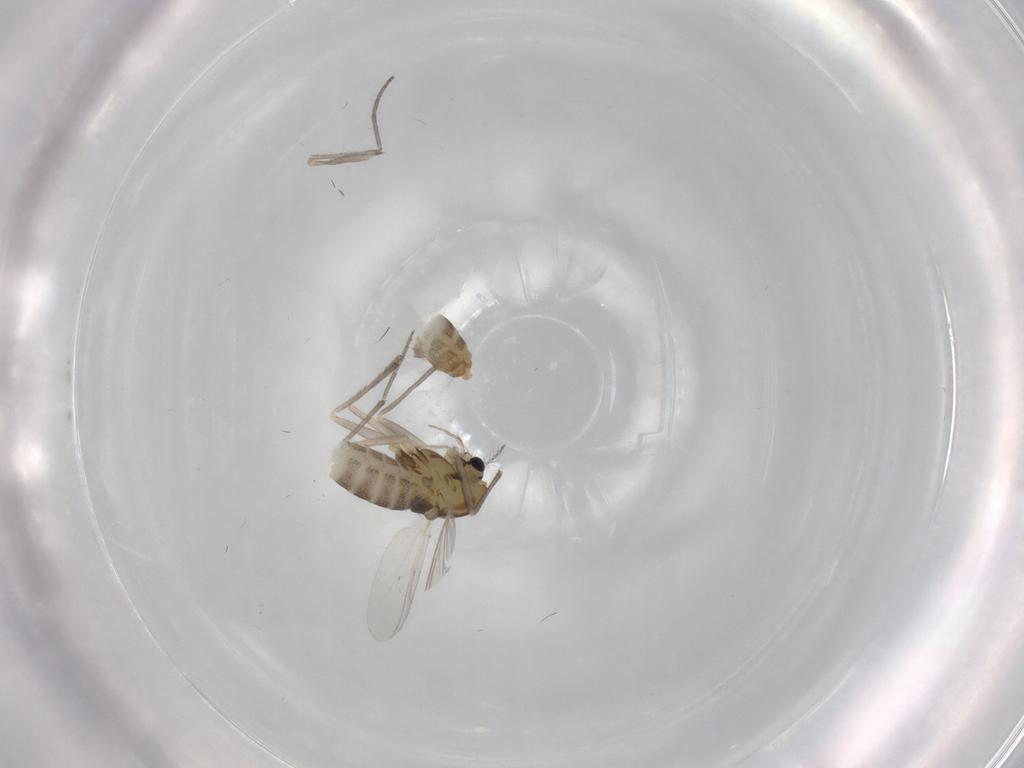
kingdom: Animalia
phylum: Arthropoda
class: Insecta
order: Diptera
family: Chironomidae
